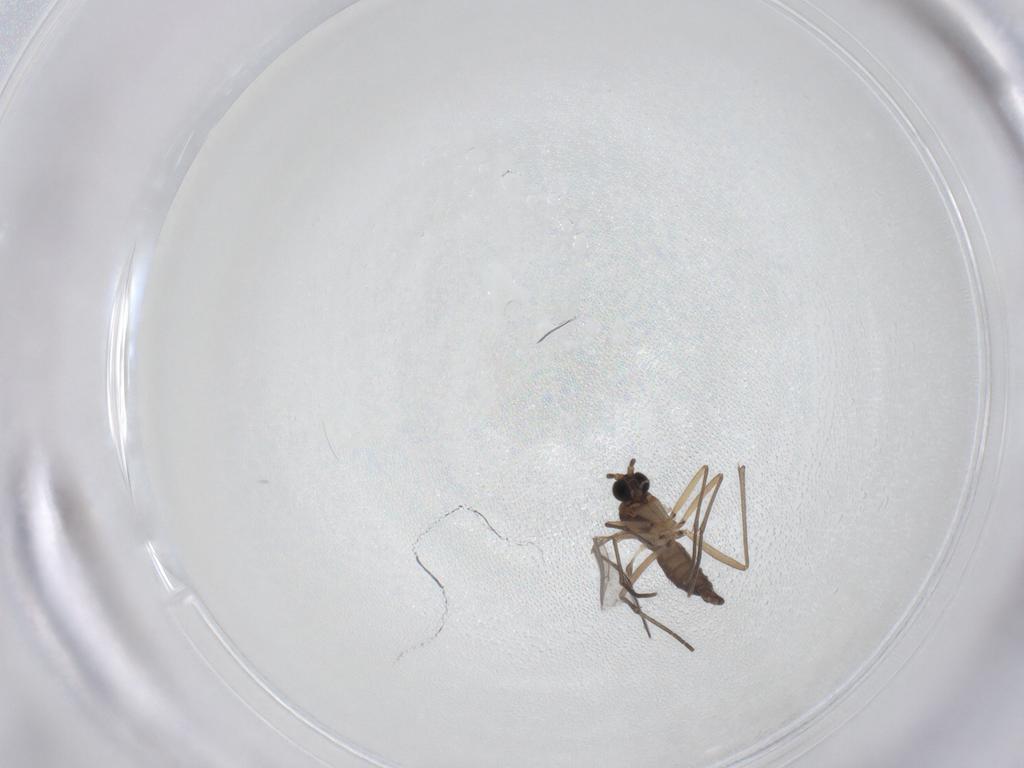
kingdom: Animalia
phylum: Arthropoda
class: Insecta
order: Diptera
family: Sciaridae
